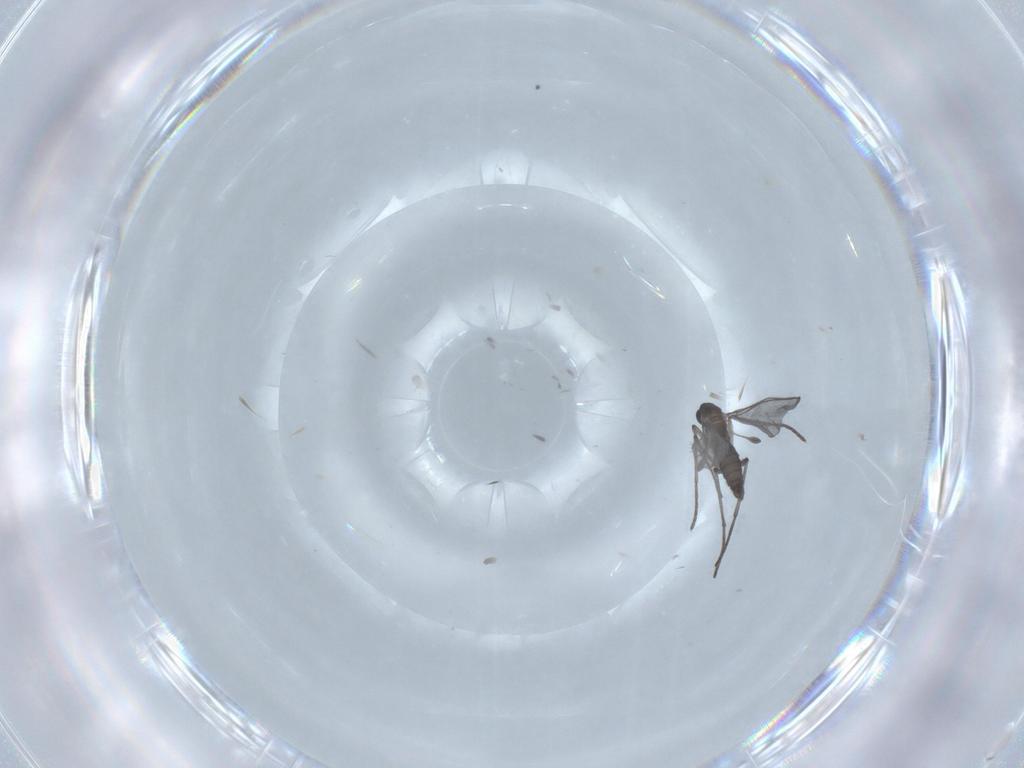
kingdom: Animalia
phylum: Arthropoda
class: Insecta
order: Diptera
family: Sciaridae
